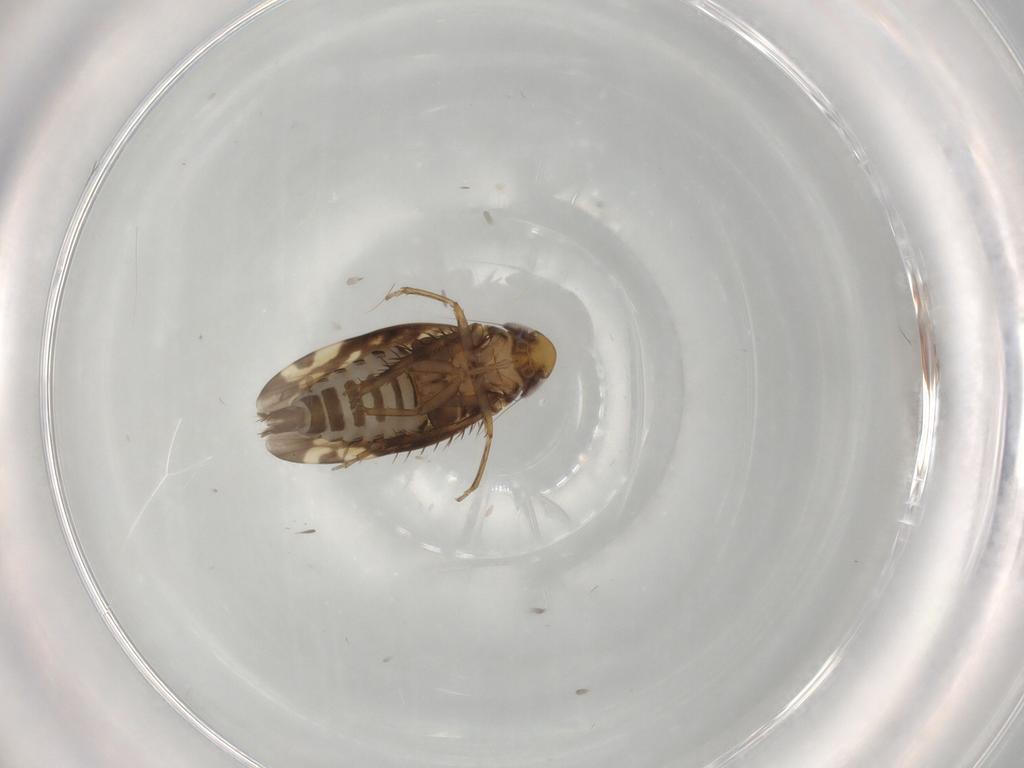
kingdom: Animalia
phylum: Arthropoda
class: Insecta
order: Hemiptera
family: Cicadellidae
